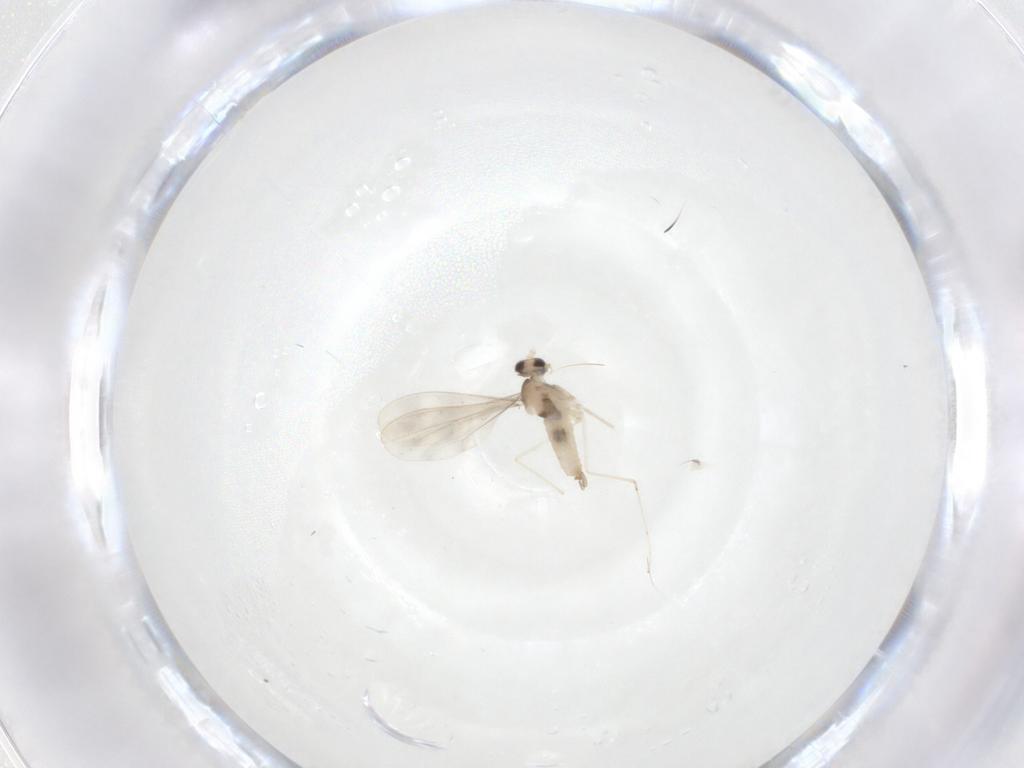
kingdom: Animalia
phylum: Arthropoda
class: Insecta
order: Diptera
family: Cecidomyiidae
